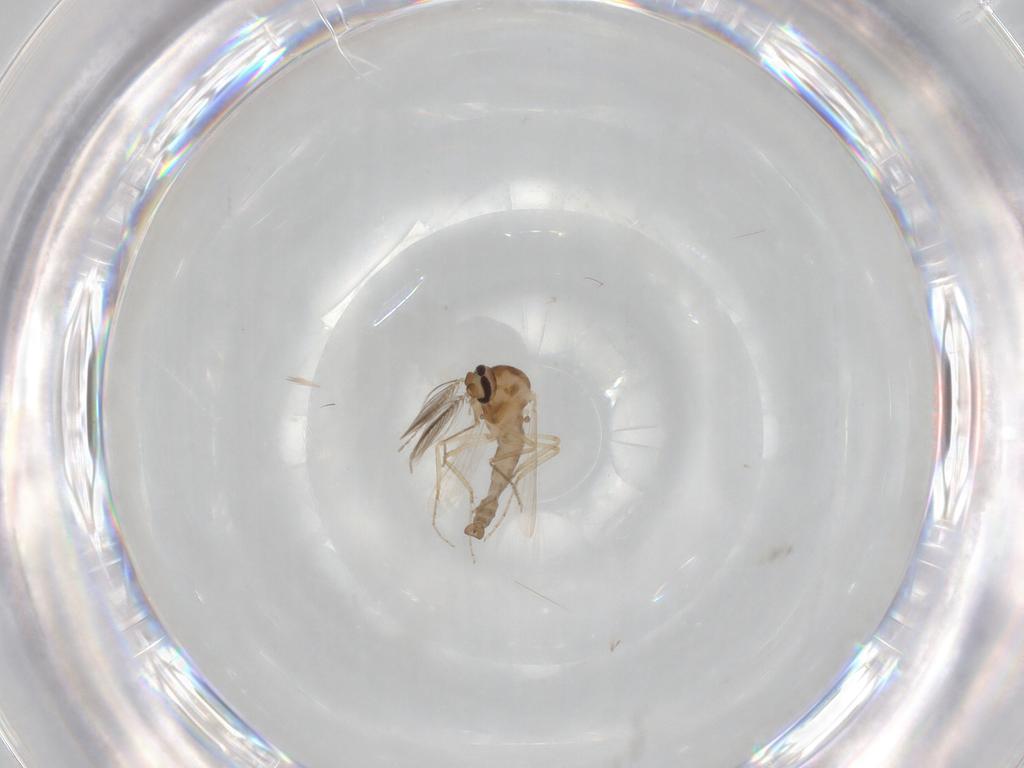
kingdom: Animalia
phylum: Arthropoda
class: Insecta
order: Diptera
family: Ceratopogonidae
